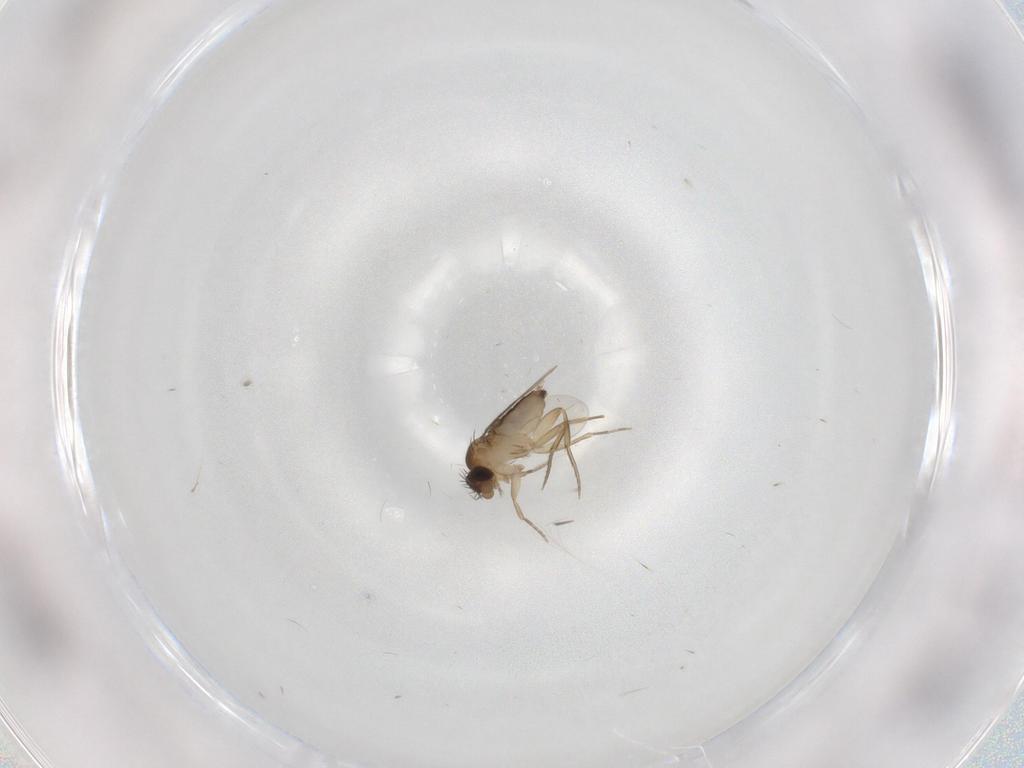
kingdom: Animalia
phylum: Arthropoda
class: Insecta
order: Diptera
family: Phoridae
